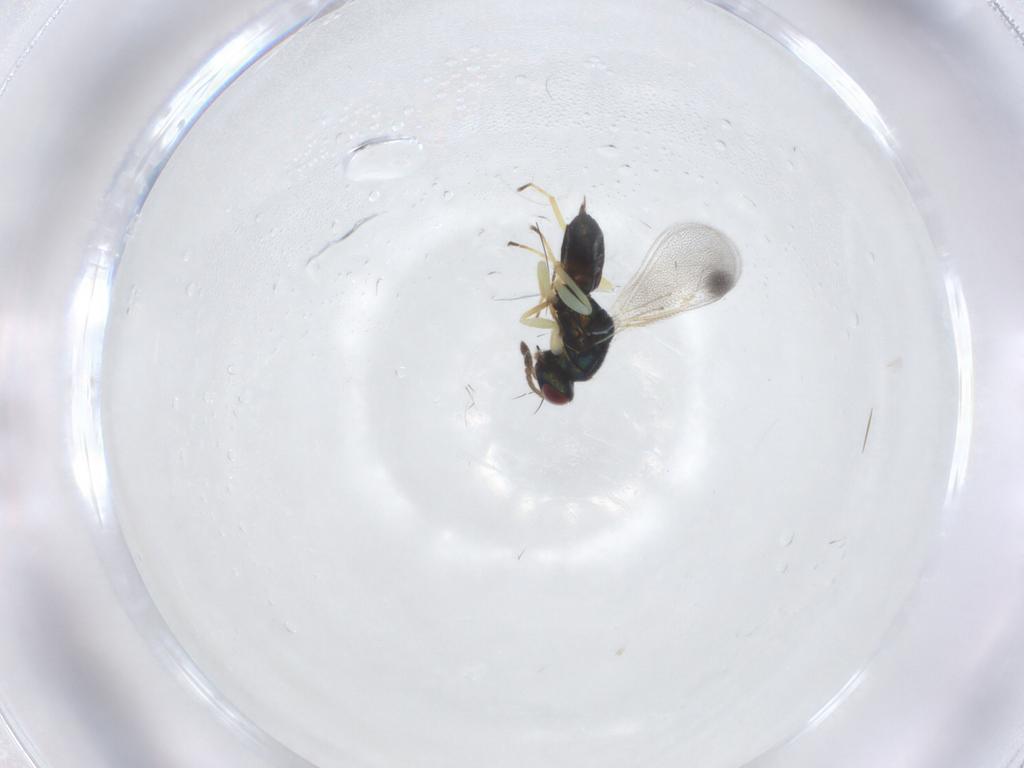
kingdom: Animalia
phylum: Arthropoda
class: Insecta
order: Hymenoptera
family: Eulophidae
